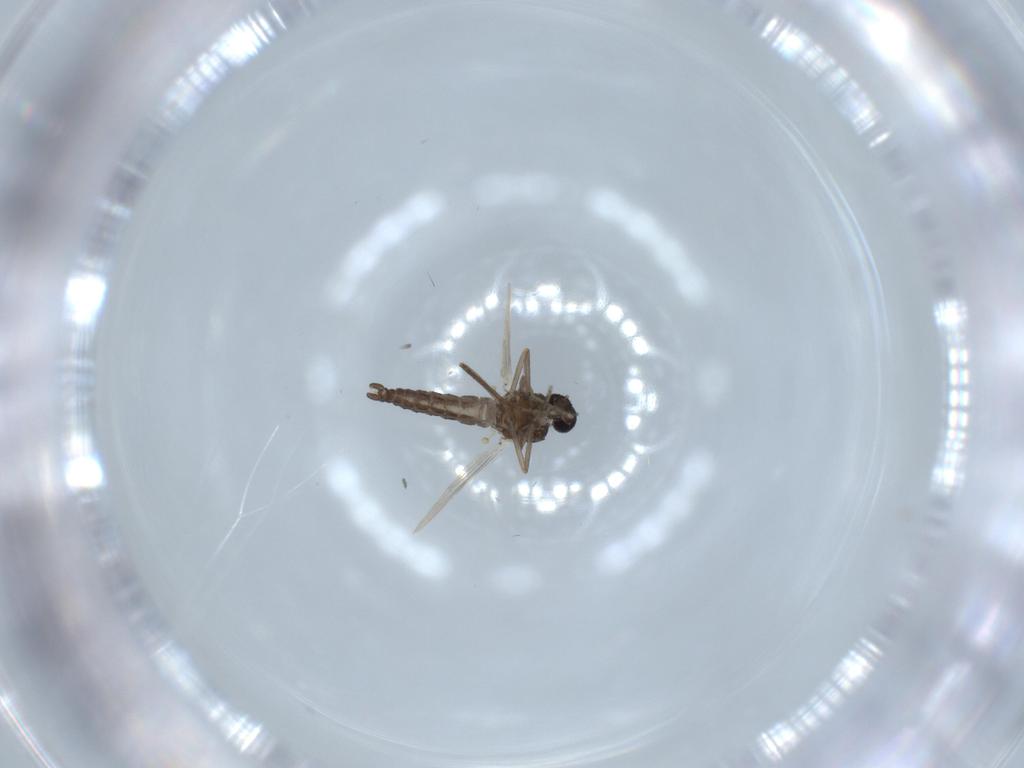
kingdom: Animalia
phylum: Arthropoda
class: Insecta
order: Diptera
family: Ceratopogonidae
